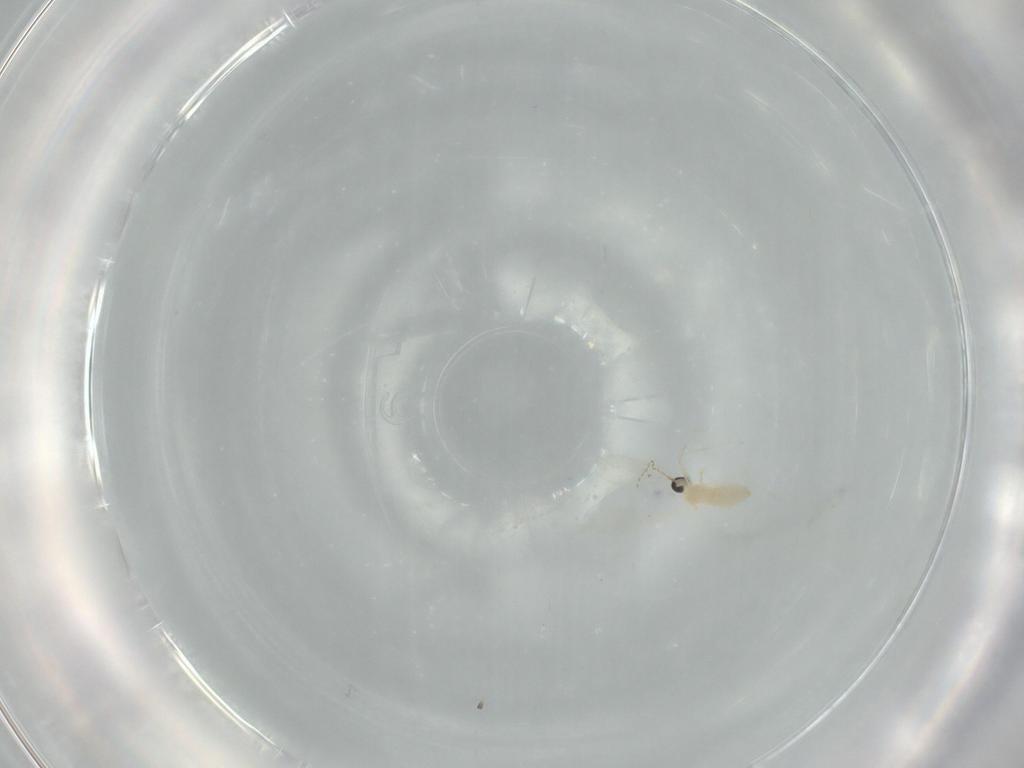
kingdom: Animalia
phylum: Arthropoda
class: Insecta
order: Diptera
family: Cecidomyiidae
